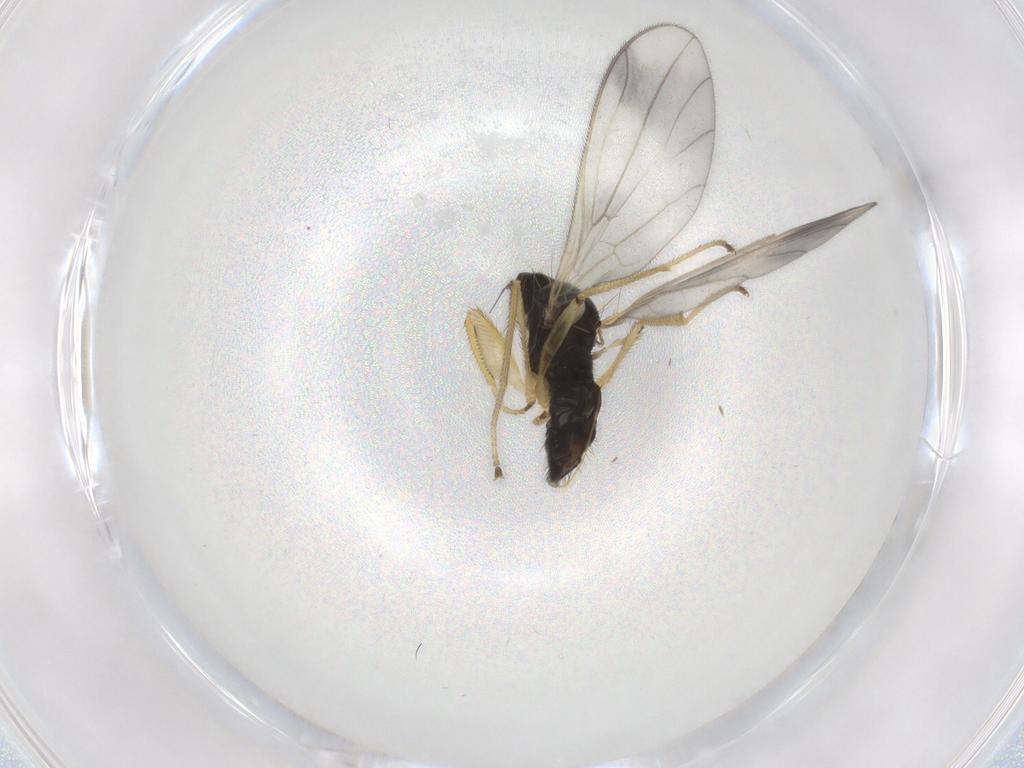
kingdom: Animalia
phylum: Arthropoda
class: Insecta
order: Diptera
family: Empididae
